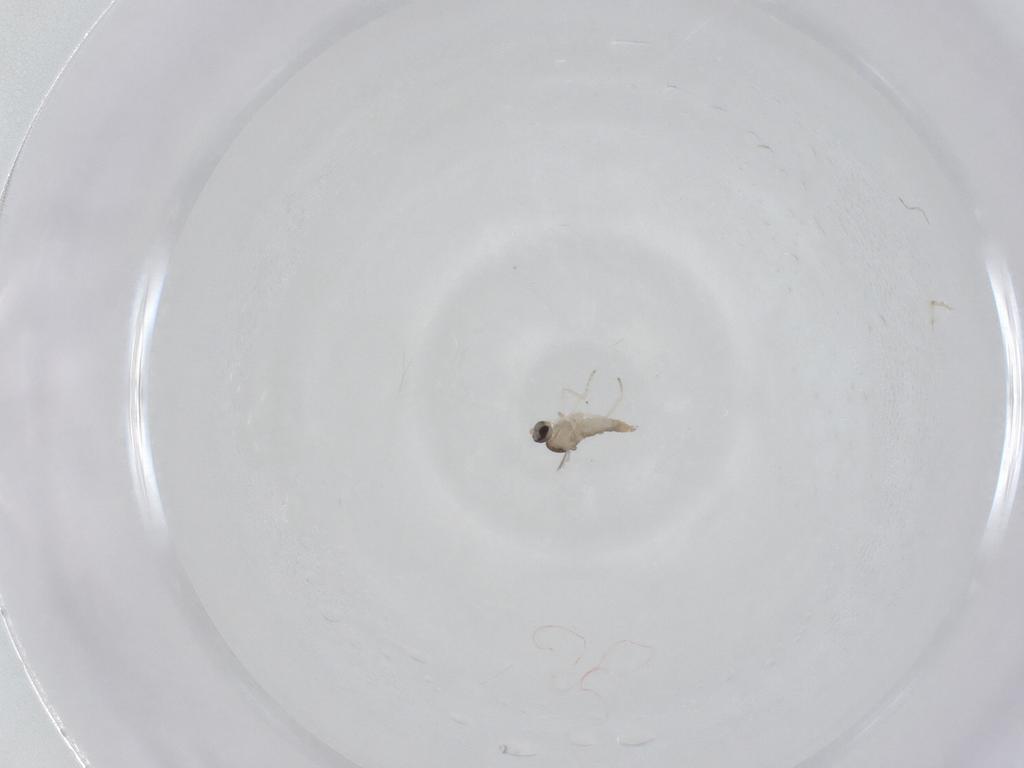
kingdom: Animalia
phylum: Arthropoda
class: Insecta
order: Diptera
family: Cecidomyiidae
